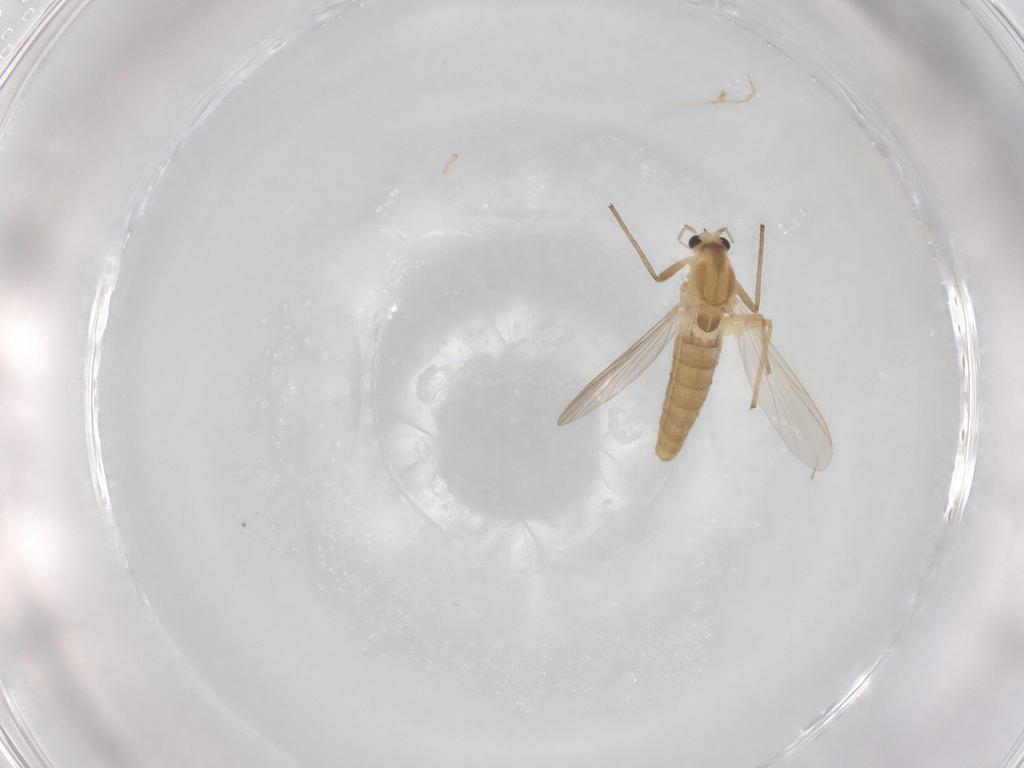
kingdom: Animalia
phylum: Arthropoda
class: Insecta
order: Diptera
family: Chironomidae
